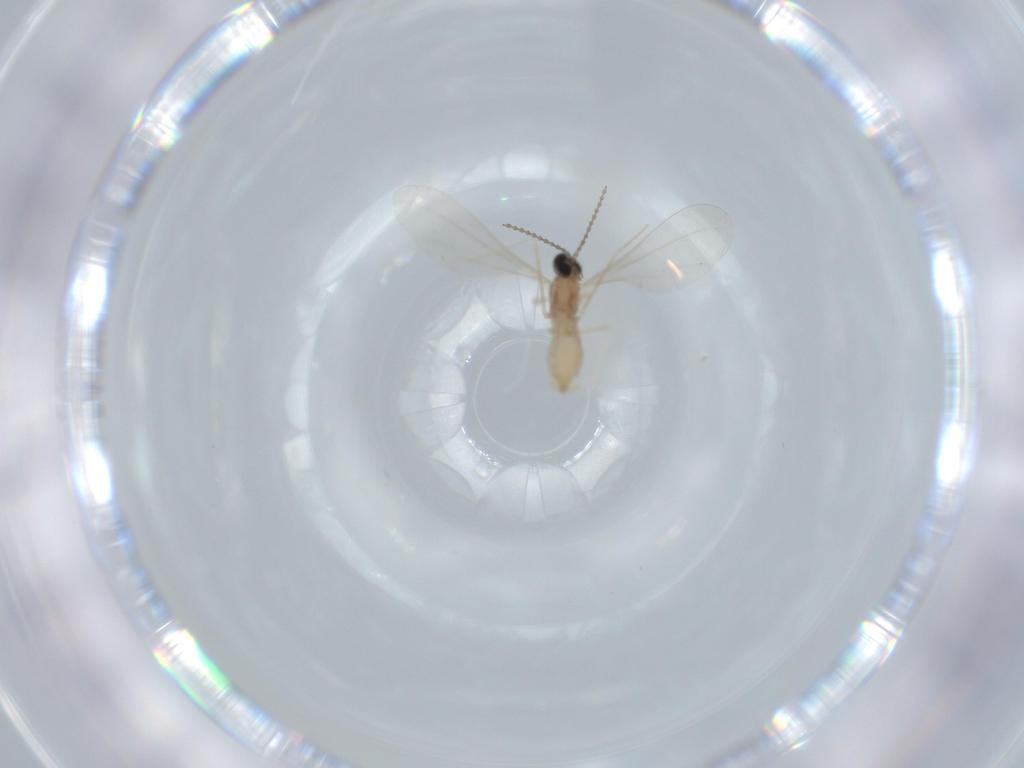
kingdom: Animalia
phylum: Arthropoda
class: Insecta
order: Diptera
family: Cecidomyiidae
